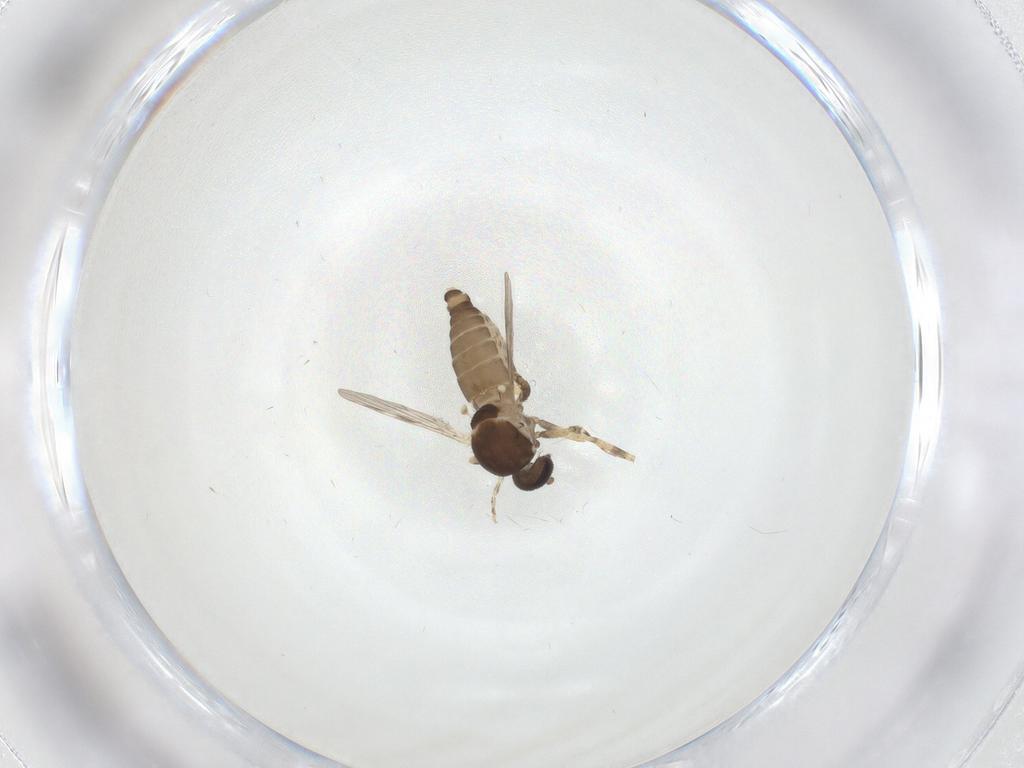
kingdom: Animalia
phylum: Arthropoda
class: Insecta
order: Diptera
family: Ceratopogonidae
